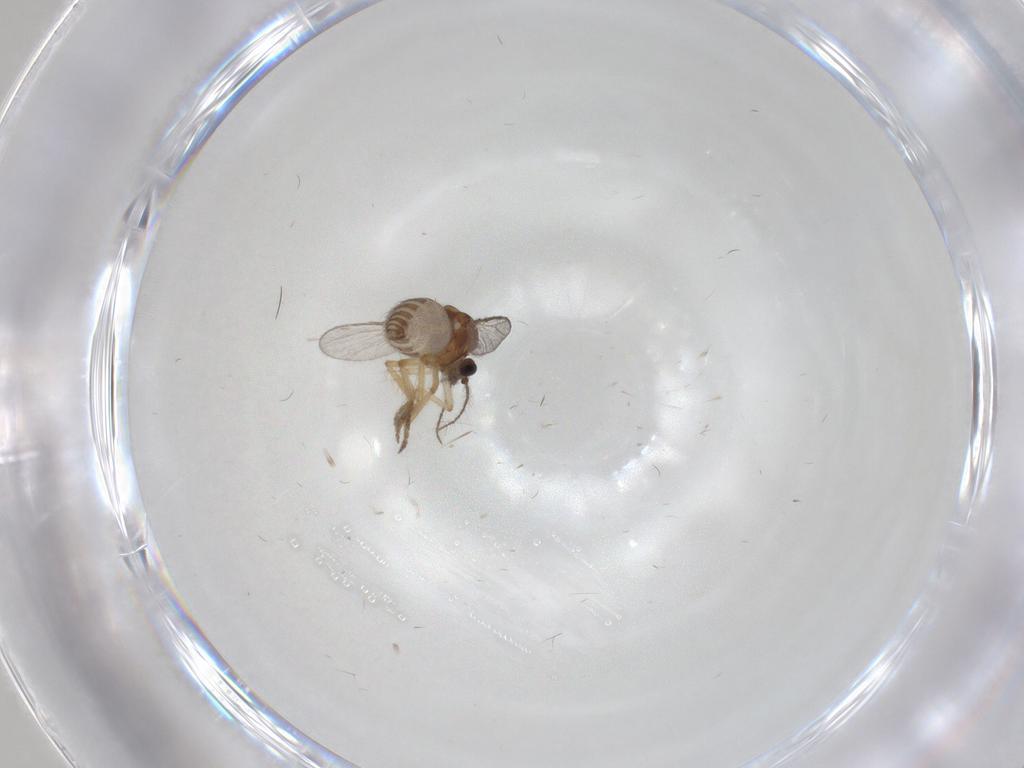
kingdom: Animalia
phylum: Arthropoda
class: Insecta
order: Diptera
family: Ceratopogonidae
